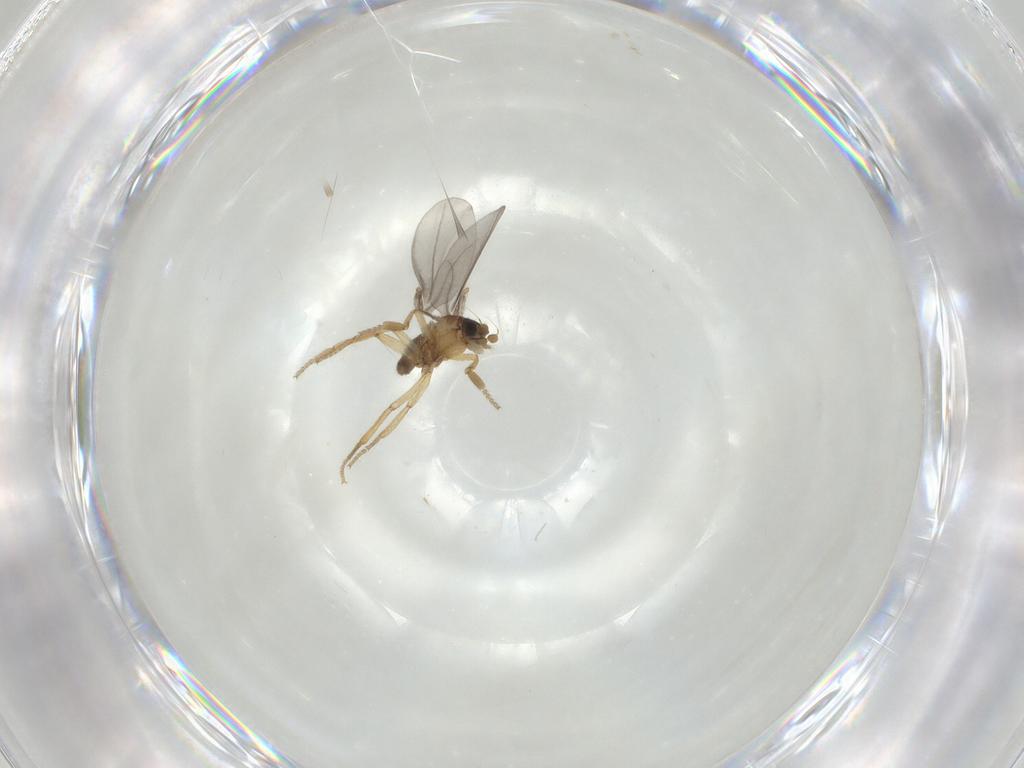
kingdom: Animalia
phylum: Arthropoda
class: Insecta
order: Diptera
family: Phoridae
